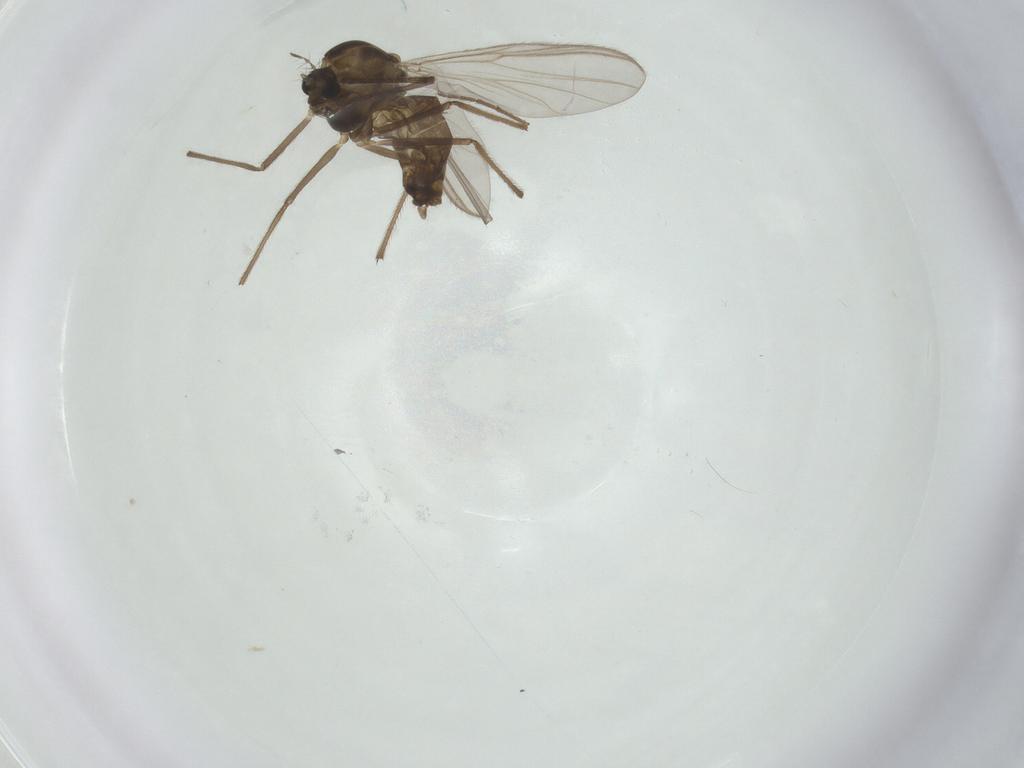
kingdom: Animalia
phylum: Arthropoda
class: Insecta
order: Diptera
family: Chironomidae
